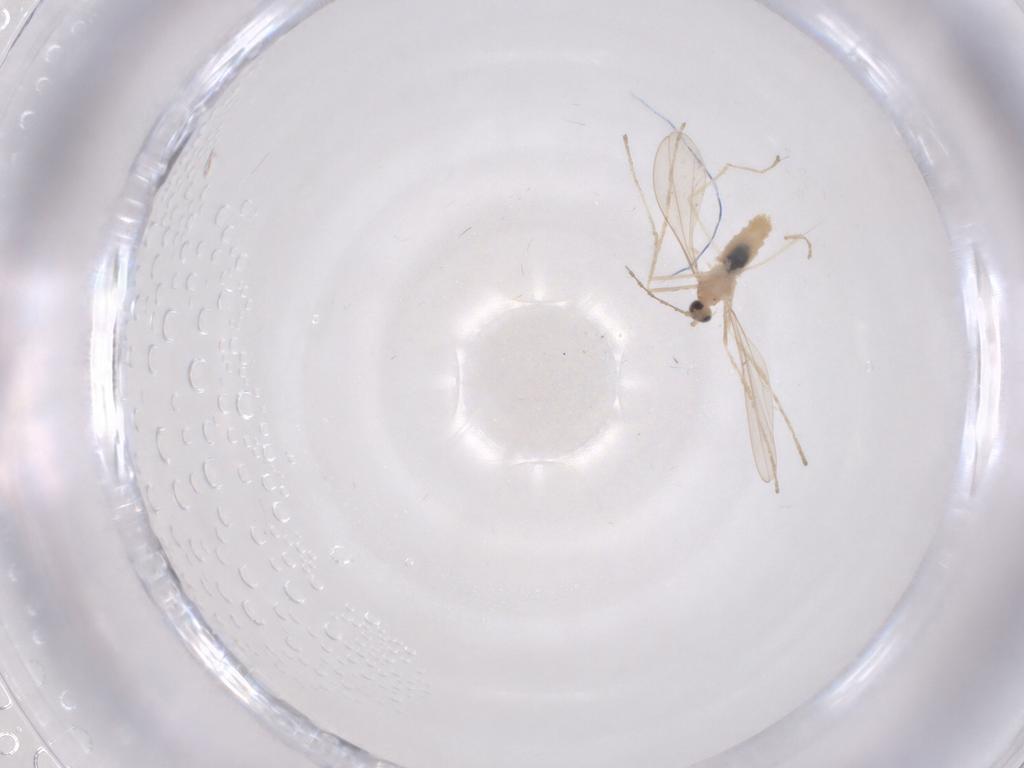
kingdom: Animalia
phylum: Arthropoda
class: Insecta
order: Diptera
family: Cecidomyiidae
